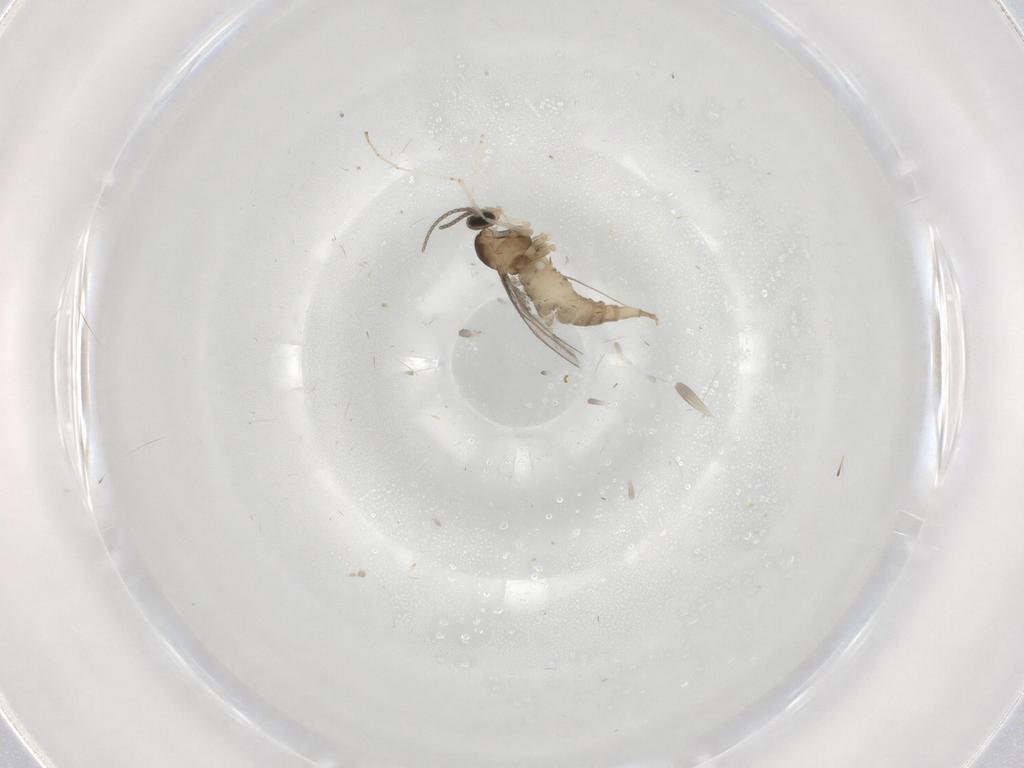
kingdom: Animalia
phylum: Arthropoda
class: Insecta
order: Diptera
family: Cecidomyiidae
